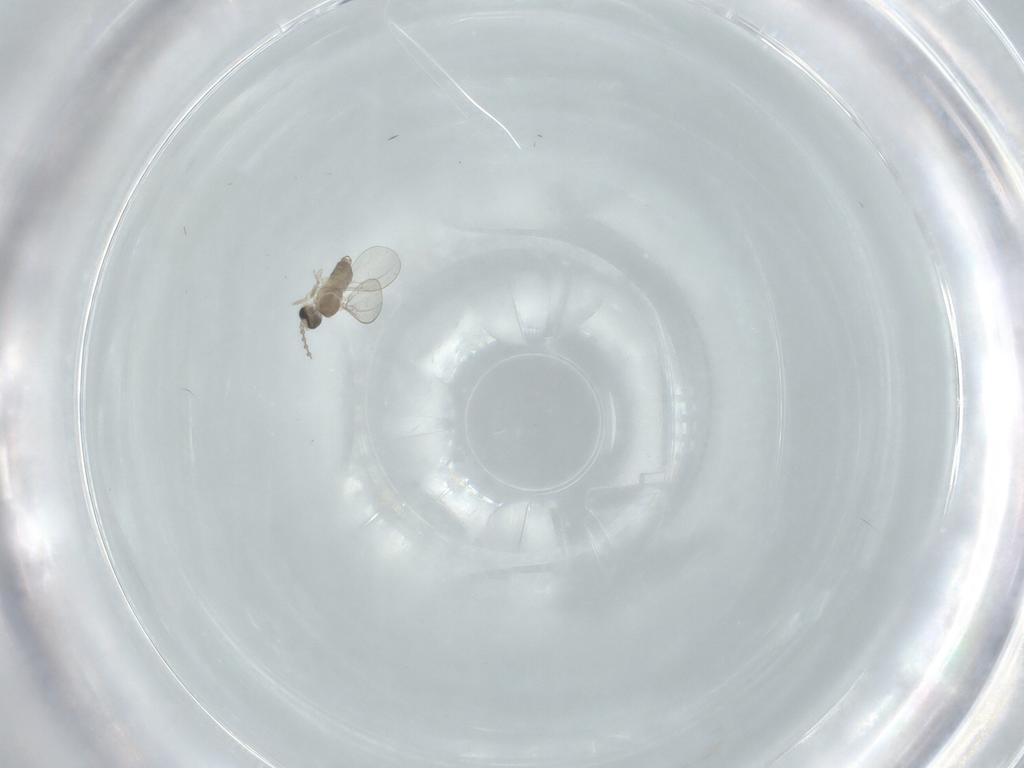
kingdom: Animalia
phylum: Arthropoda
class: Insecta
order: Diptera
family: Cecidomyiidae
